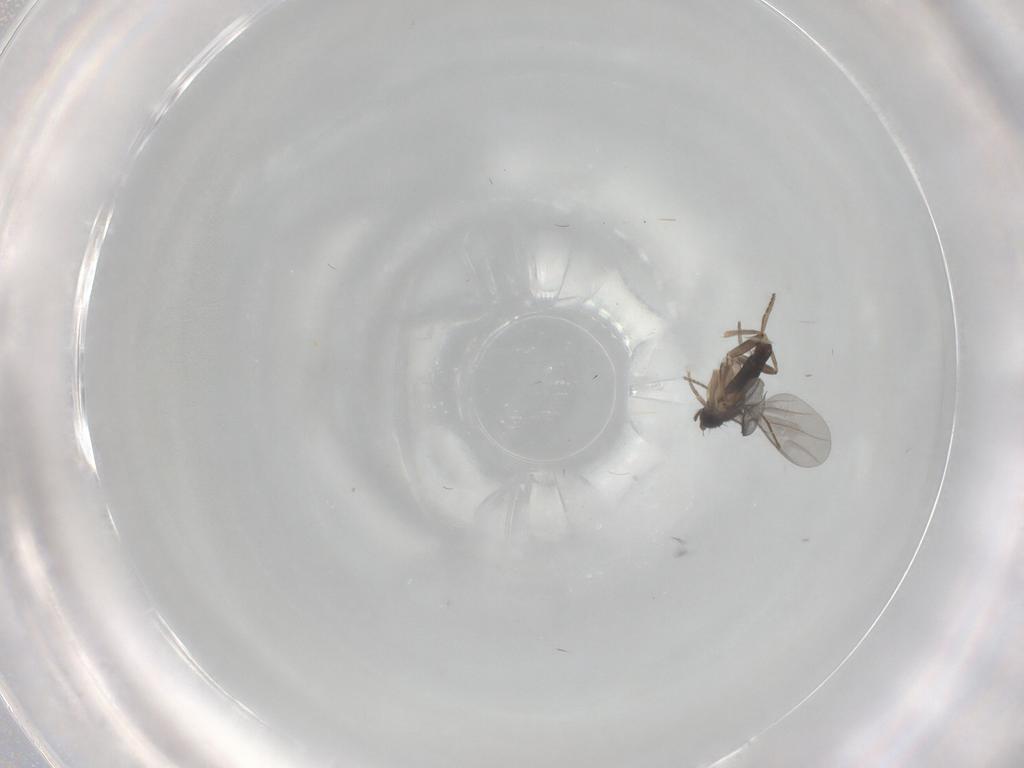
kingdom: Animalia
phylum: Arthropoda
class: Insecta
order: Diptera
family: Phoridae
